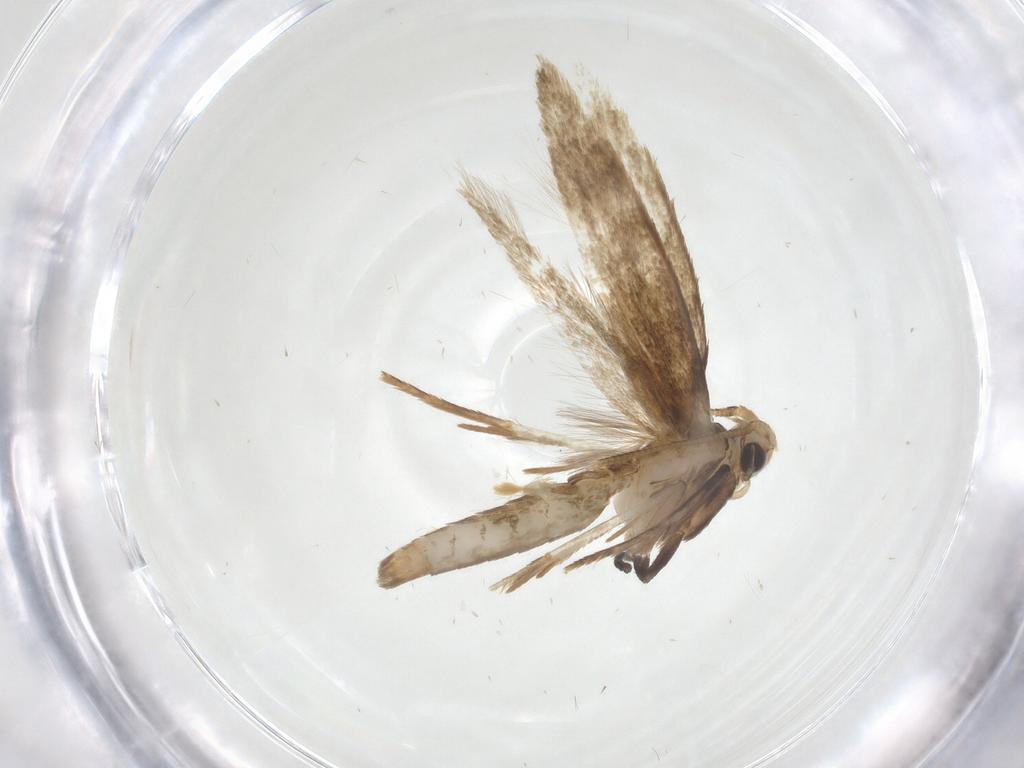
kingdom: Animalia
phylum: Arthropoda
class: Insecta
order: Lepidoptera
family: Tineidae
